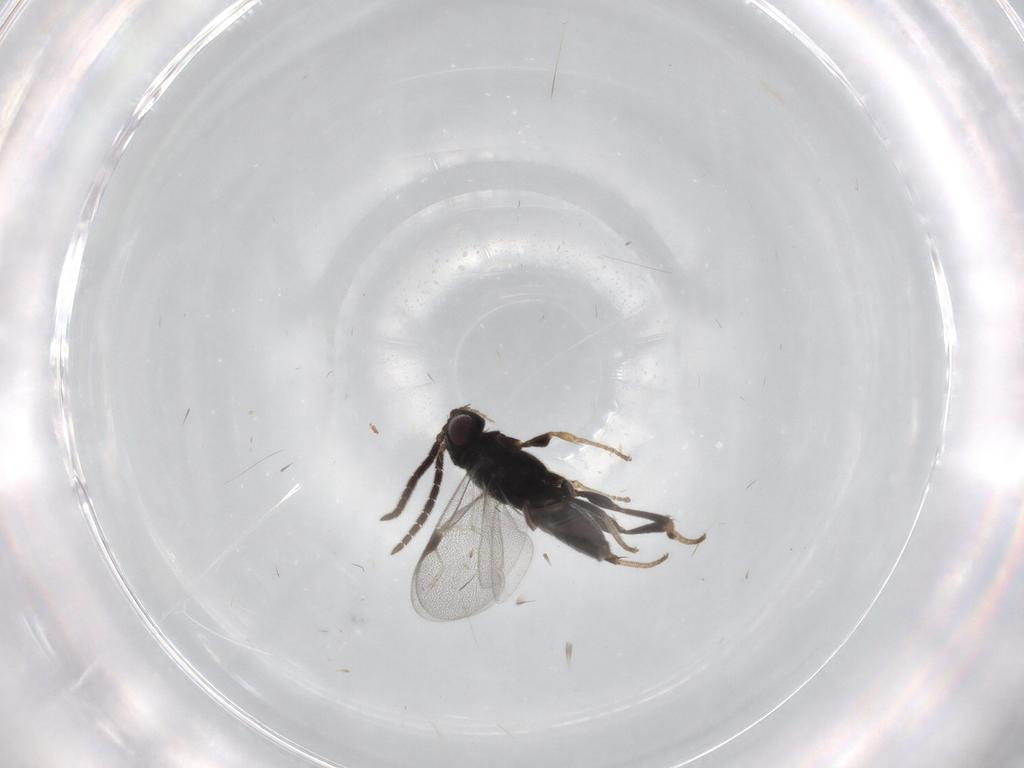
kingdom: Animalia
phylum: Arthropoda
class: Insecta
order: Hymenoptera
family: Dryinidae
